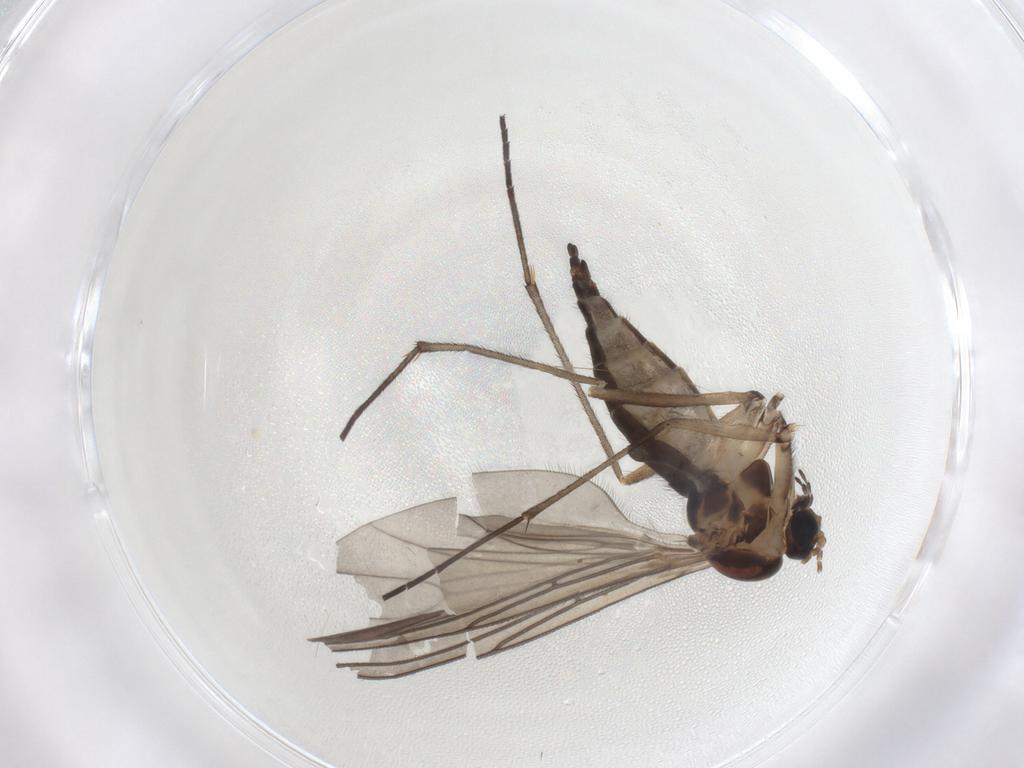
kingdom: Animalia
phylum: Arthropoda
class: Insecta
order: Diptera
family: Sciaridae
